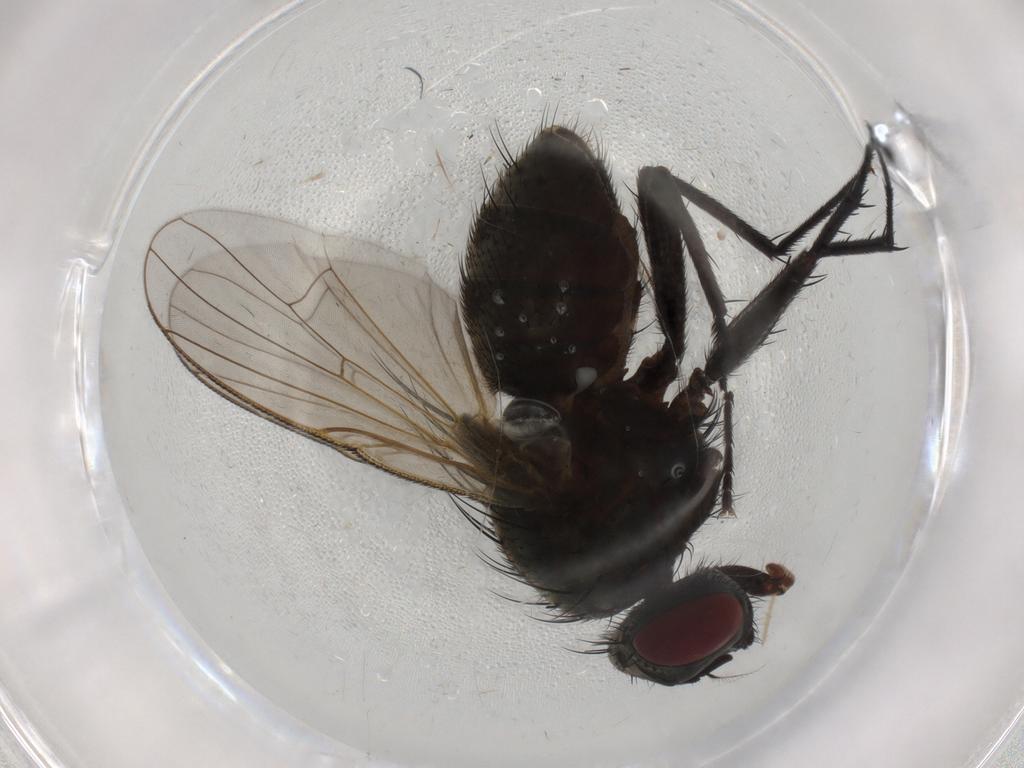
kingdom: Animalia
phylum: Arthropoda
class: Insecta
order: Diptera
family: Muscidae
